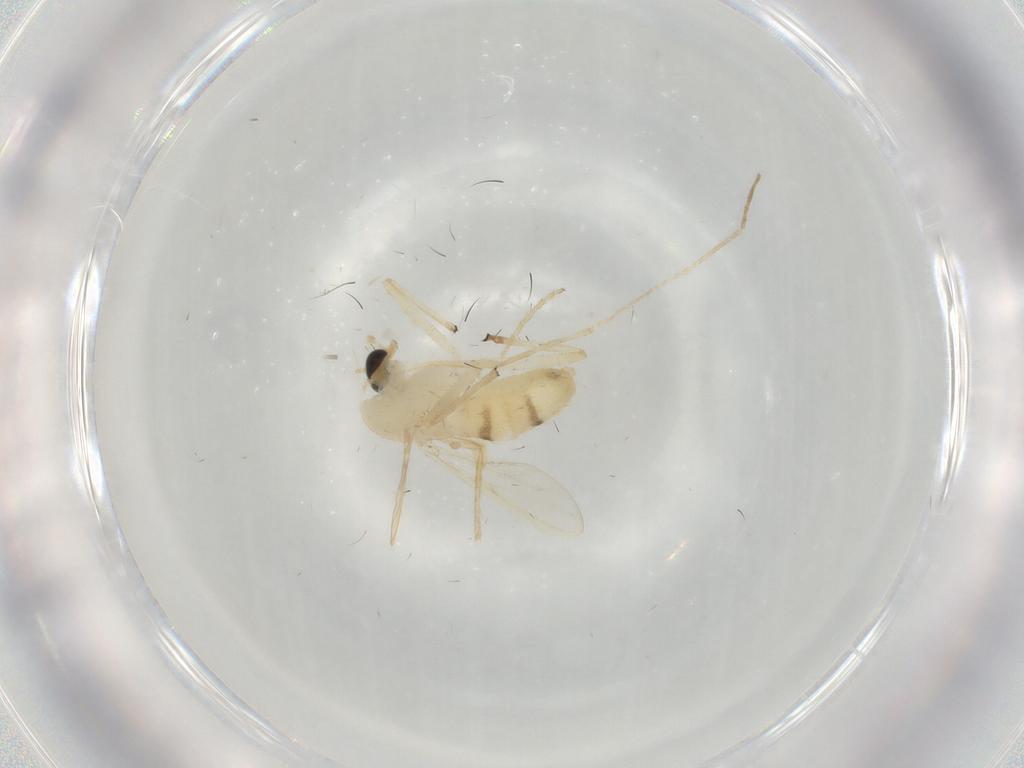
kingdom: Animalia
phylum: Arthropoda
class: Insecta
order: Diptera
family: Chironomidae
